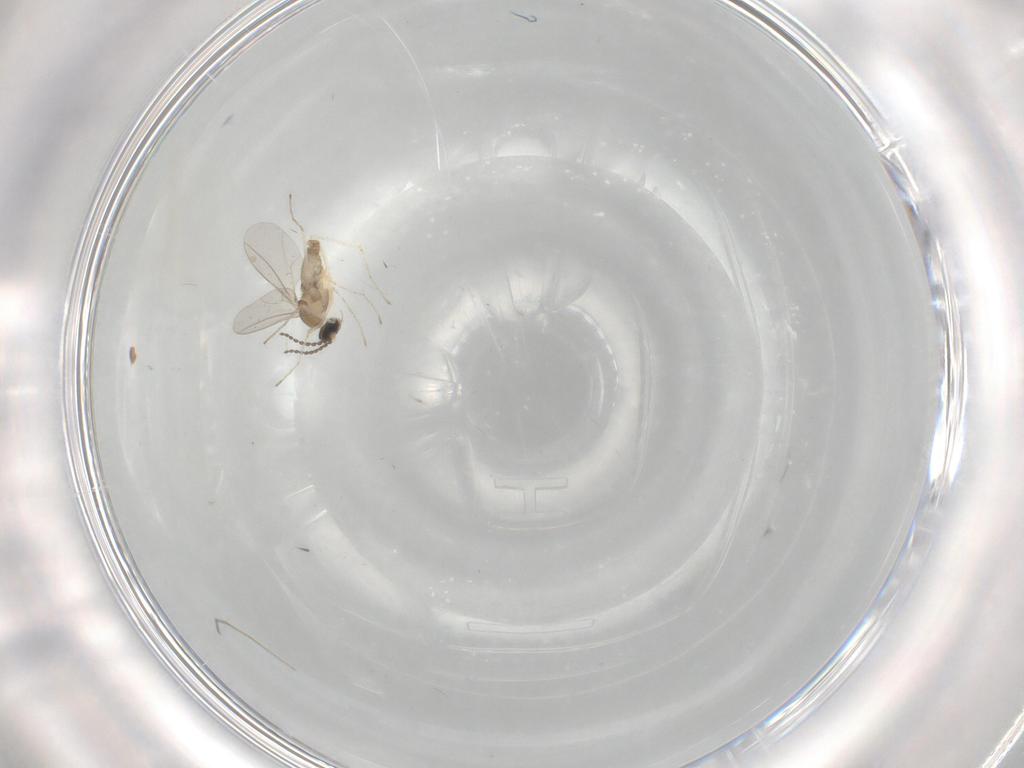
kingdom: Animalia
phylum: Arthropoda
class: Insecta
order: Diptera
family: Cecidomyiidae
